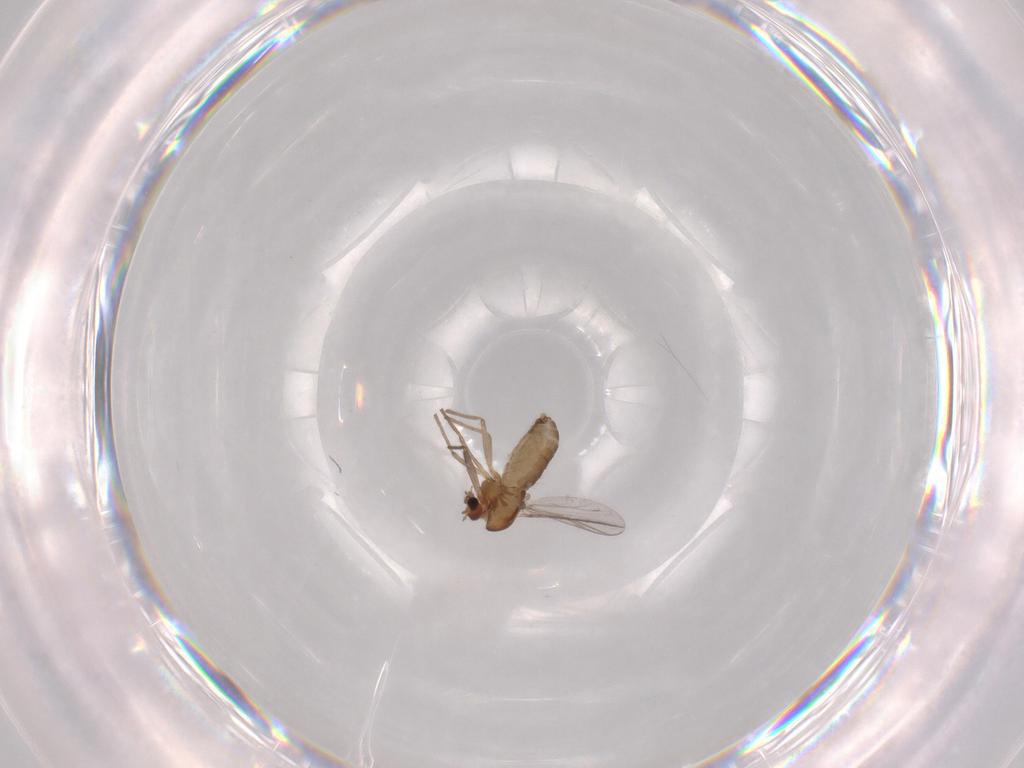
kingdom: Animalia
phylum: Arthropoda
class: Insecta
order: Diptera
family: Chironomidae
